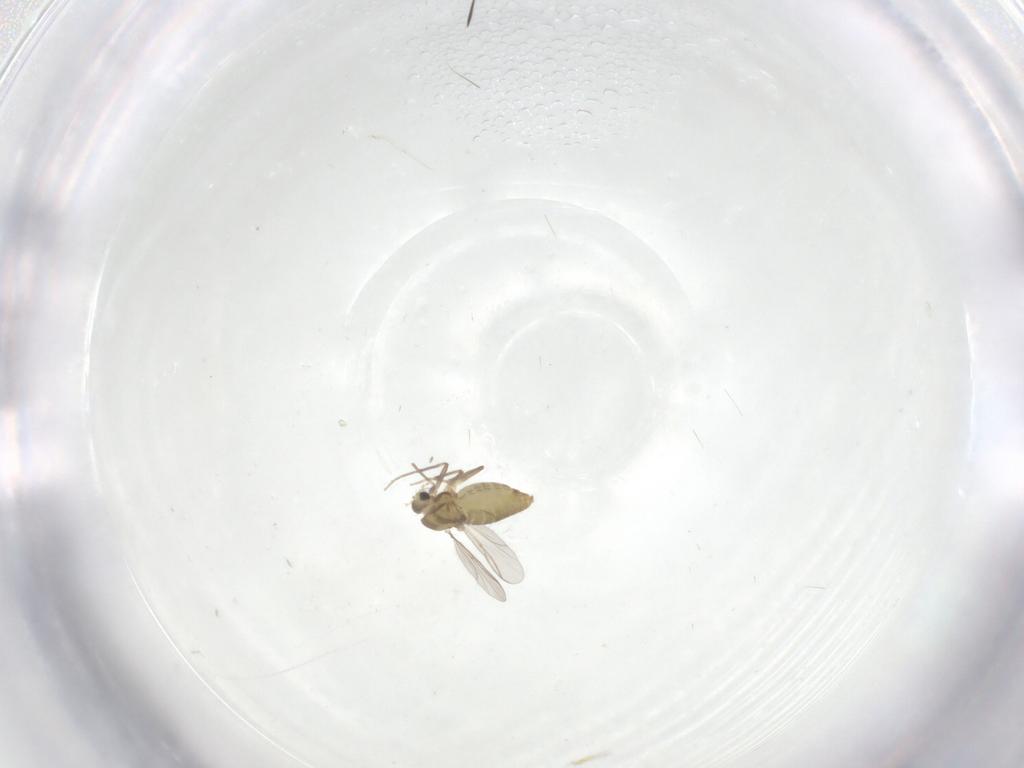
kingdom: Animalia
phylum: Arthropoda
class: Insecta
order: Diptera
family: Chironomidae
